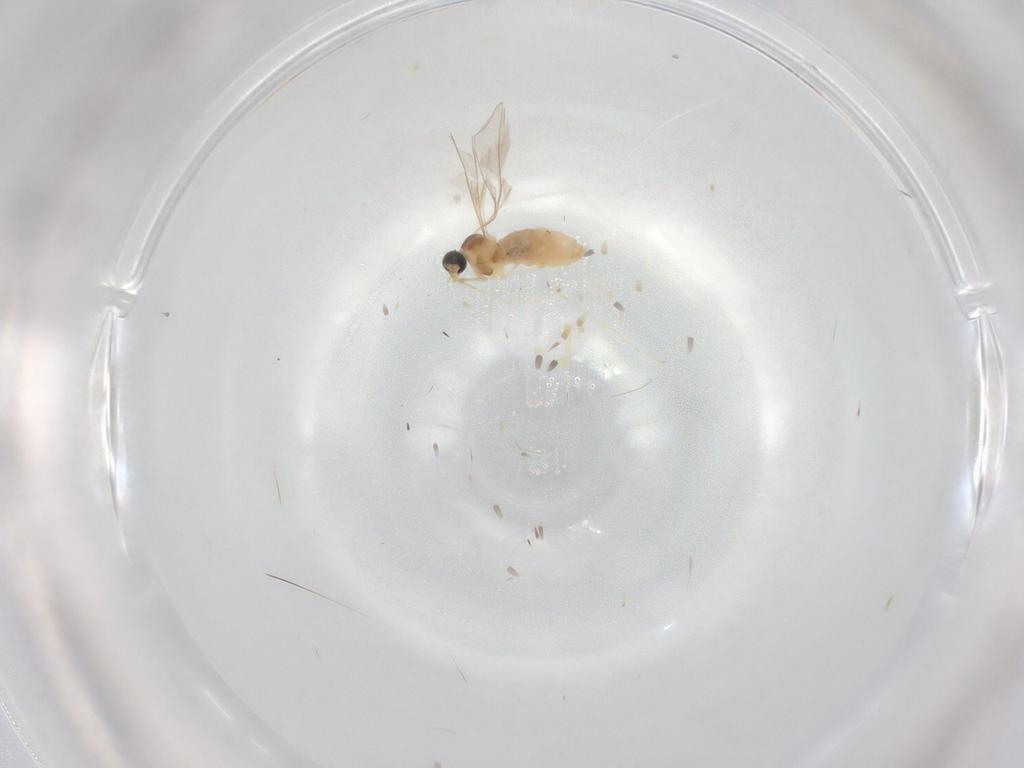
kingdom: Animalia
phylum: Arthropoda
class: Insecta
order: Diptera
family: Cecidomyiidae
